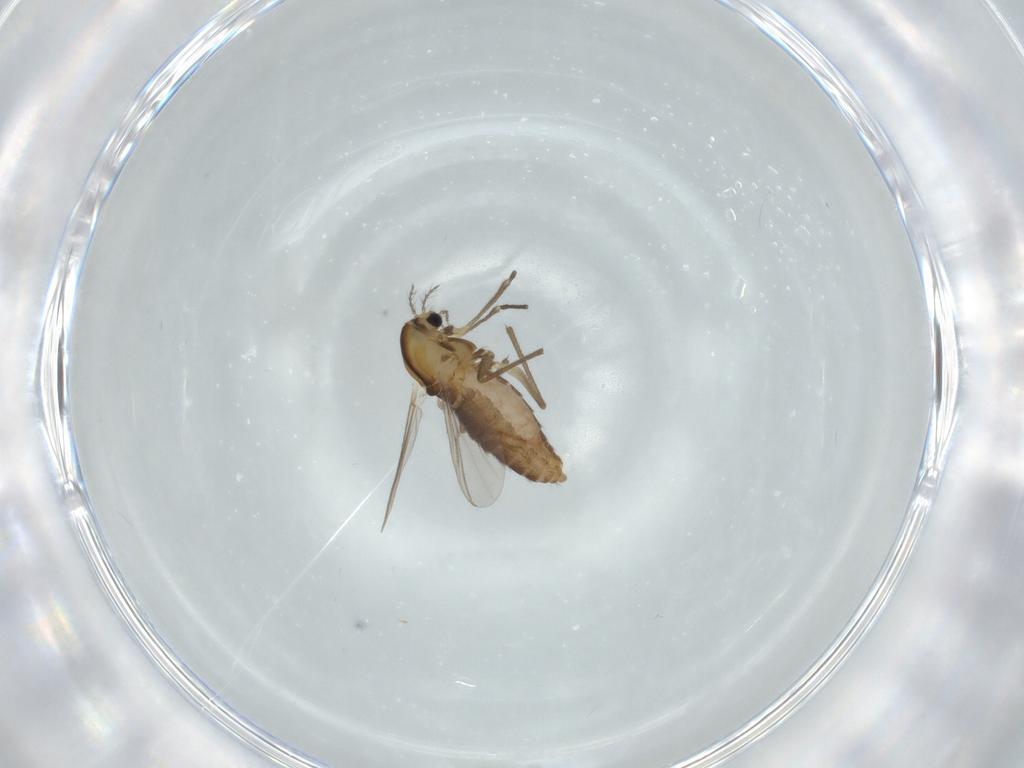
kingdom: Animalia
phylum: Arthropoda
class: Insecta
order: Diptera
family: Chironomidae
